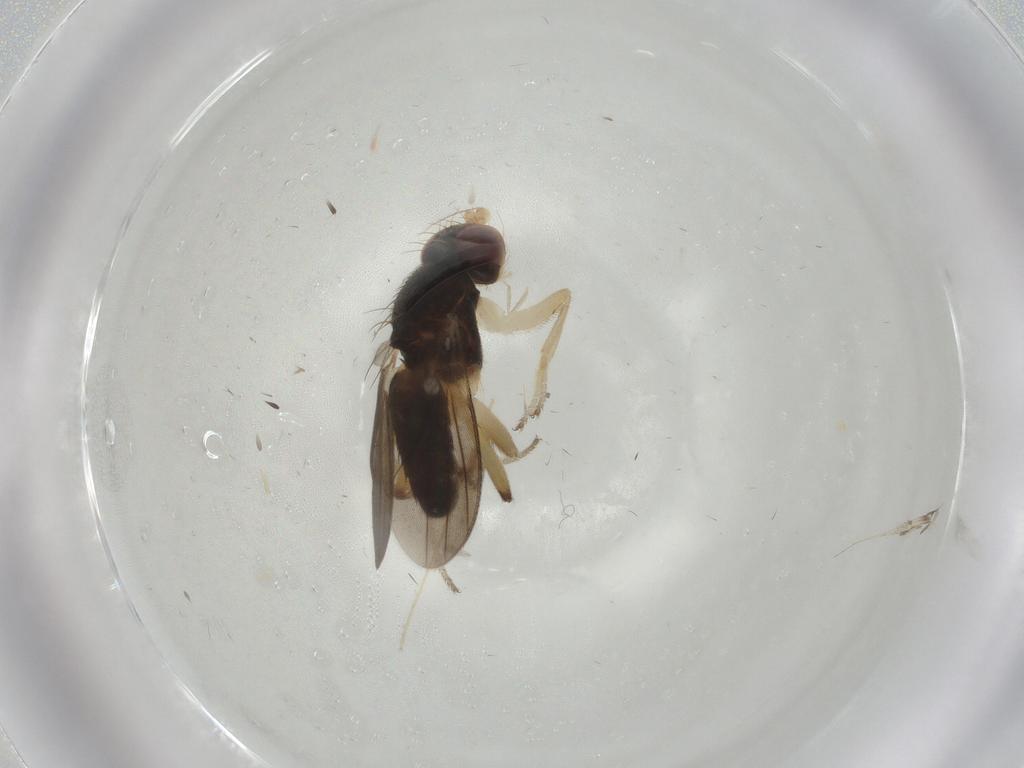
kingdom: Animalia
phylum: Arthropoda
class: Insecta
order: Diptera
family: Clusiidae
